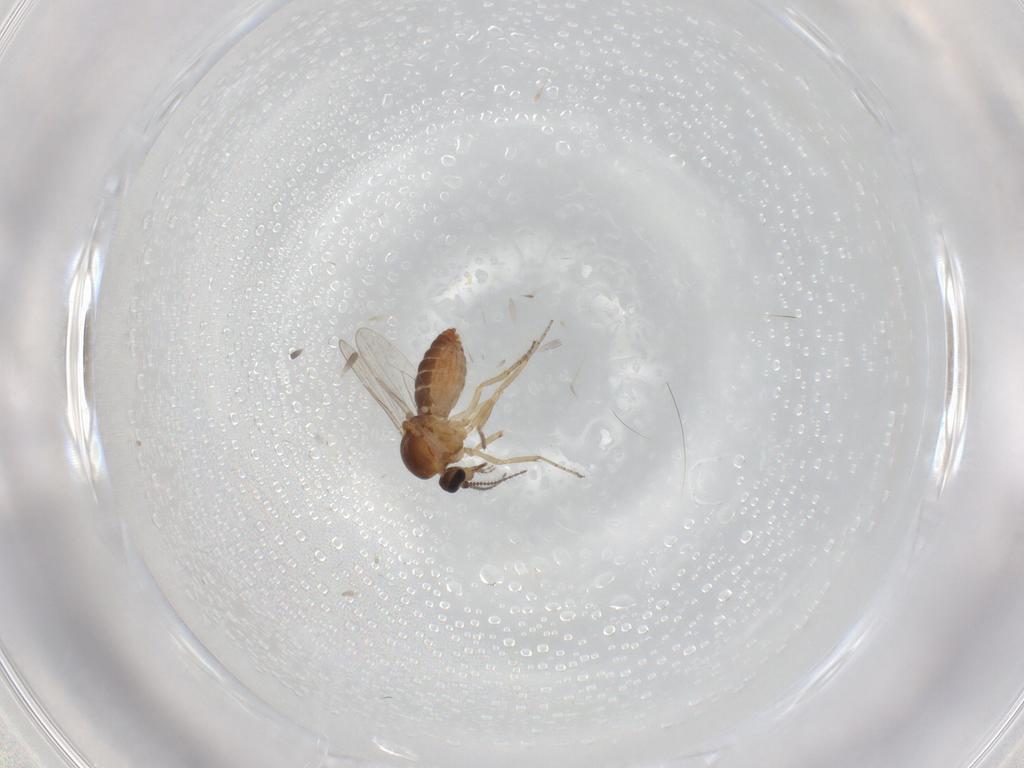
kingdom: Animalia
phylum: Arthropoda
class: Insecta
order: Diptera
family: Ceratopogonidae
